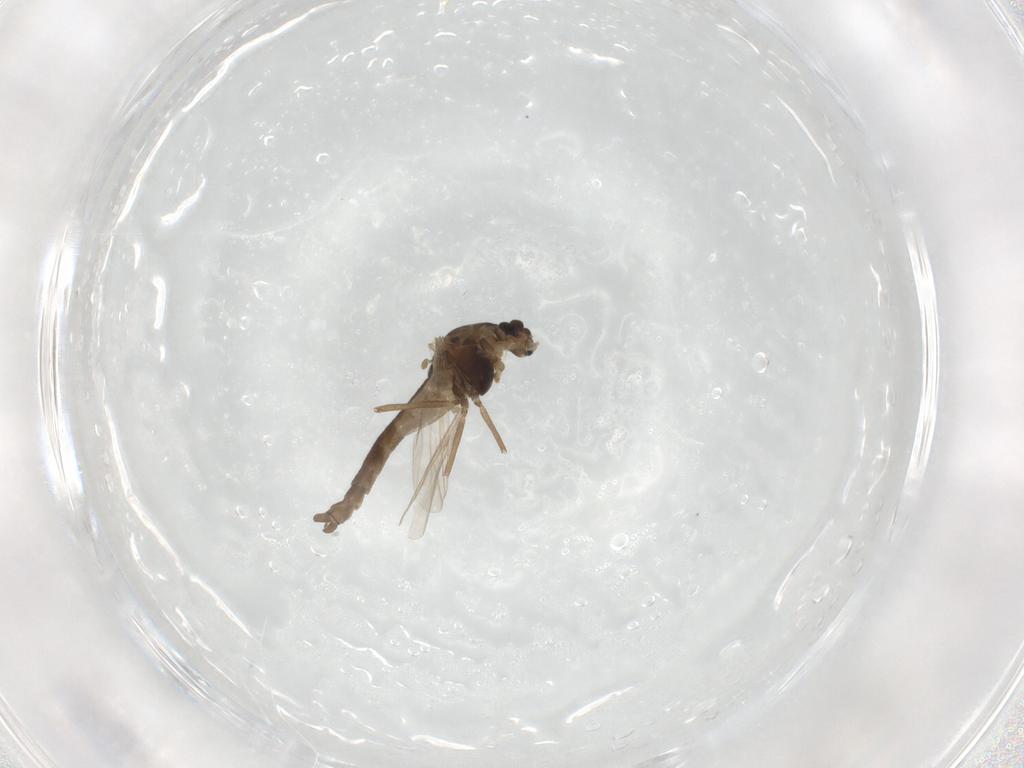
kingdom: Animalia
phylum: Arthropoda
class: Insecta
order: Diptera
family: Chironomidae
